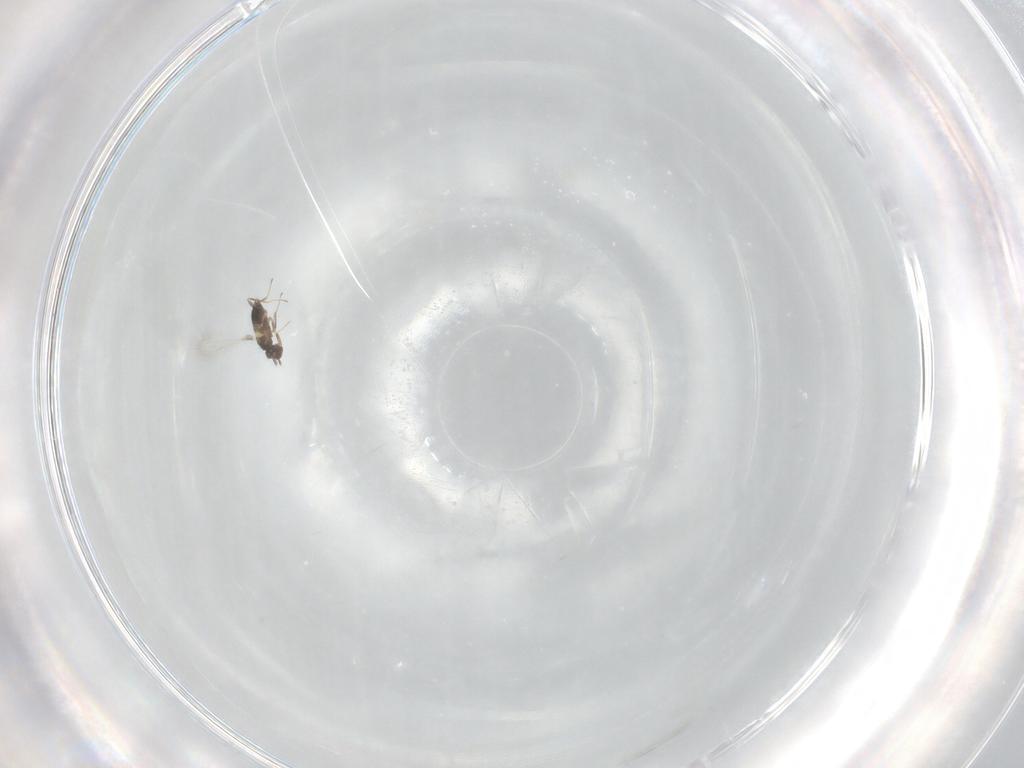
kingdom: Animalia
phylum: Arthropoda
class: Insecta
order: Hymenoptera
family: Mymaridae
